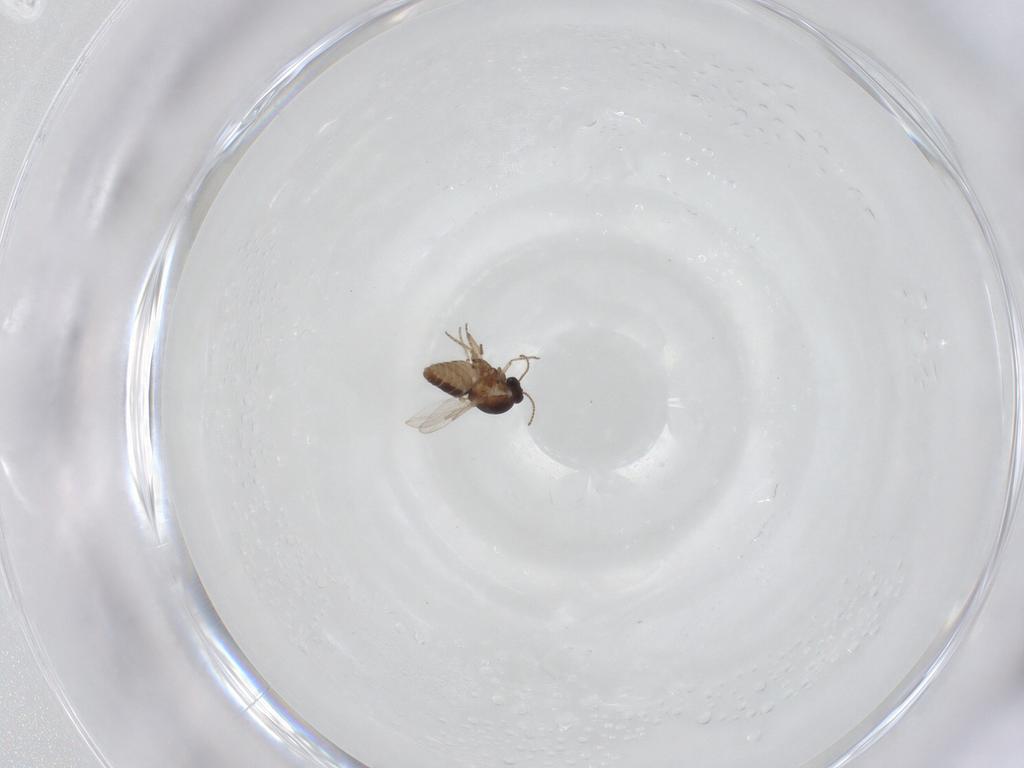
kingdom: Animalia
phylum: Arthropoda
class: Insecta
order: Diptera
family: Ceratopogonidae
